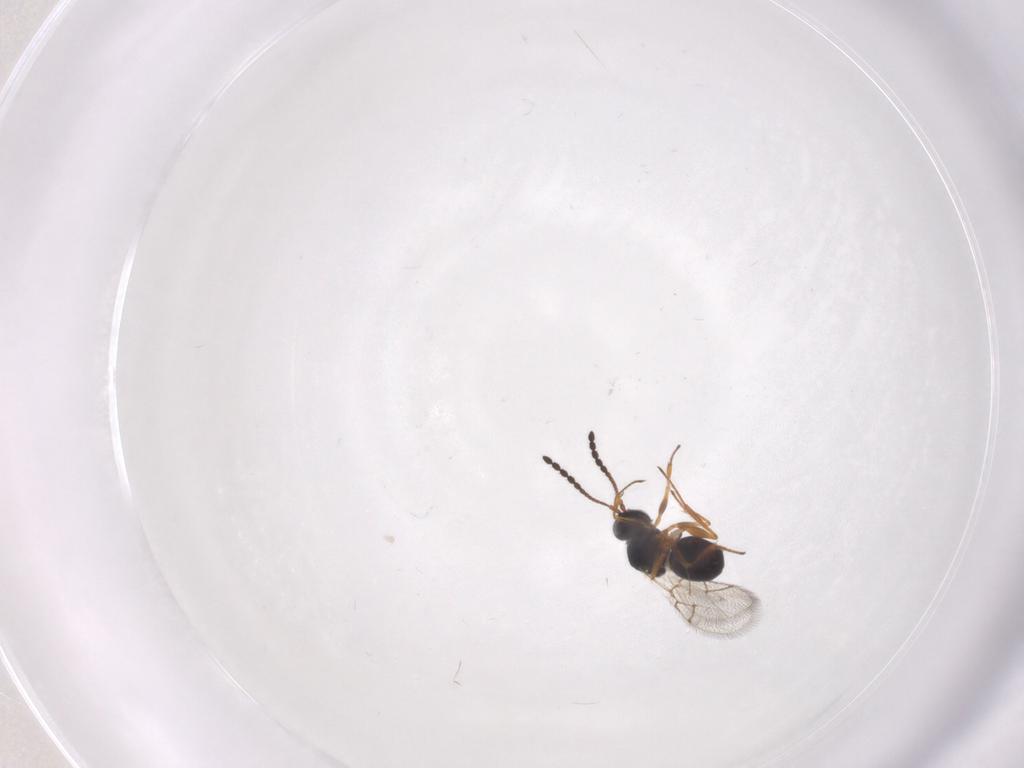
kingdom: Animalia
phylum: Arthropoda
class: Insecta
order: Hymenoptera
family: Figitidae
